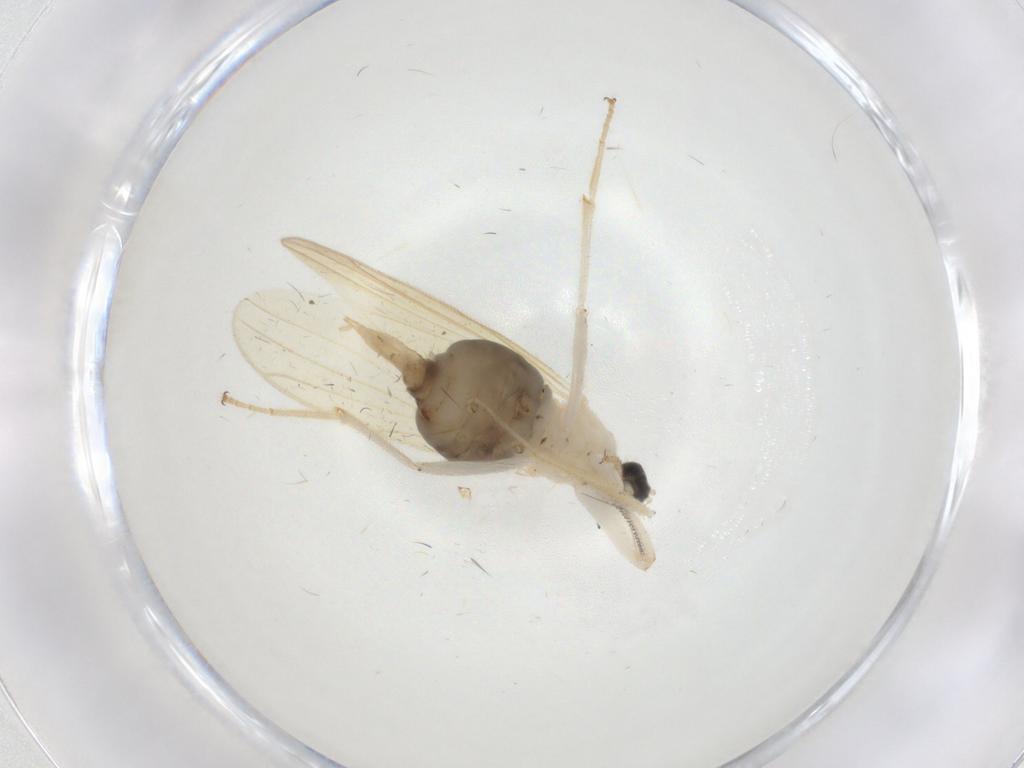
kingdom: Animalia
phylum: Arthropoda
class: Insecta
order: Diptera
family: Hybotidae
